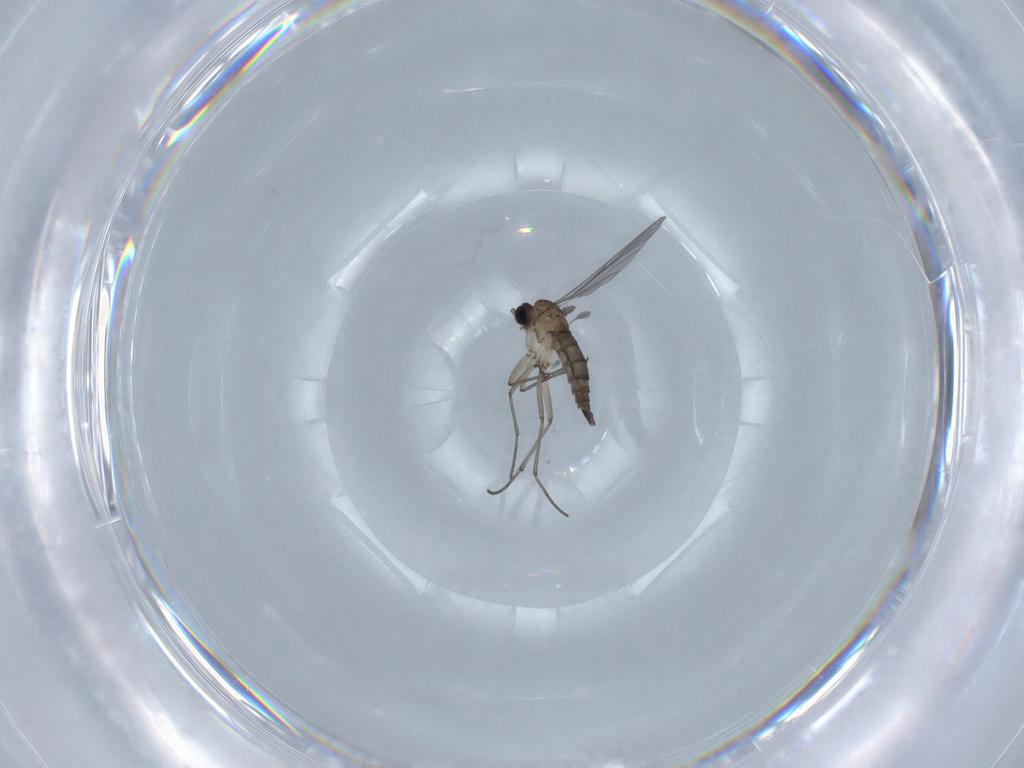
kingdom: Animalia
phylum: Arthropoda
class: Insecta
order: Diptera
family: Sciaridae
